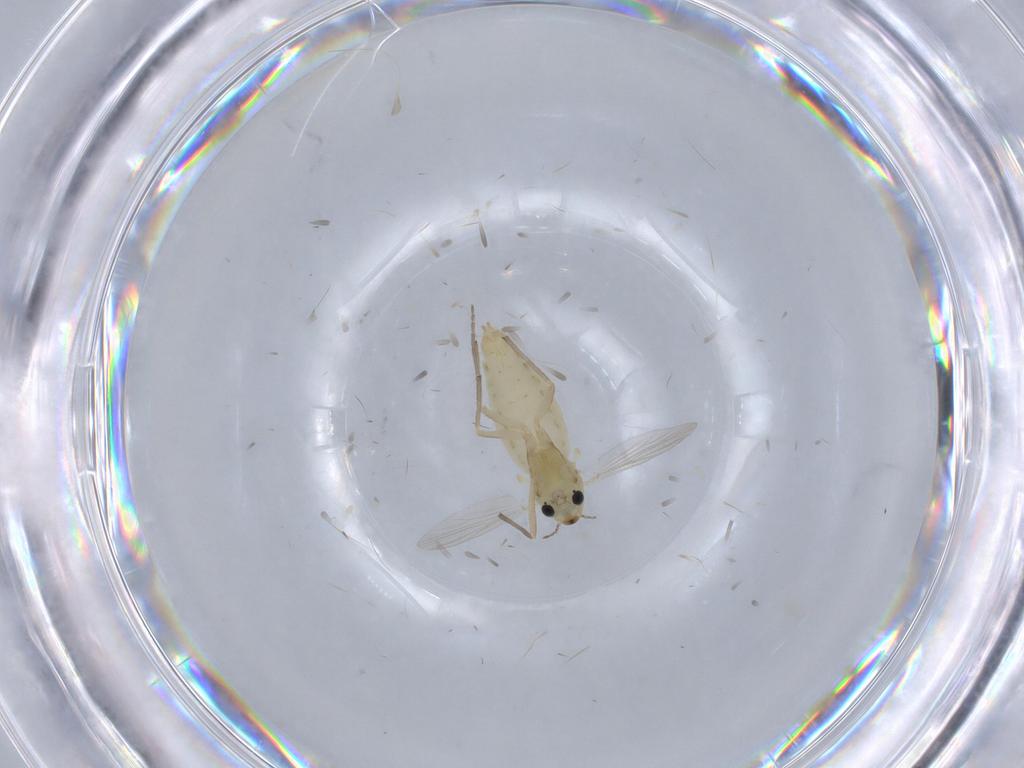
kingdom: Animalia
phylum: Arthropoda
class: Insecta
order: Diptera
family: Chironomidae
